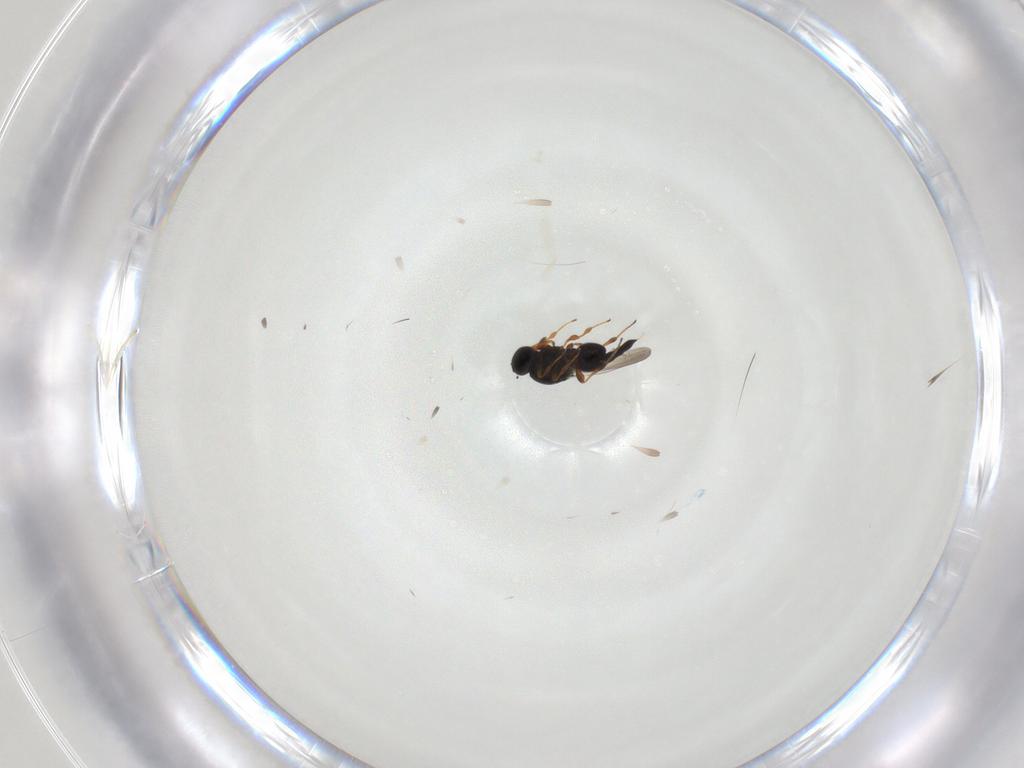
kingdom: Animalia
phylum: Arthropoda
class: Insecta
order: Hymenoptera
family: Platygastridae
